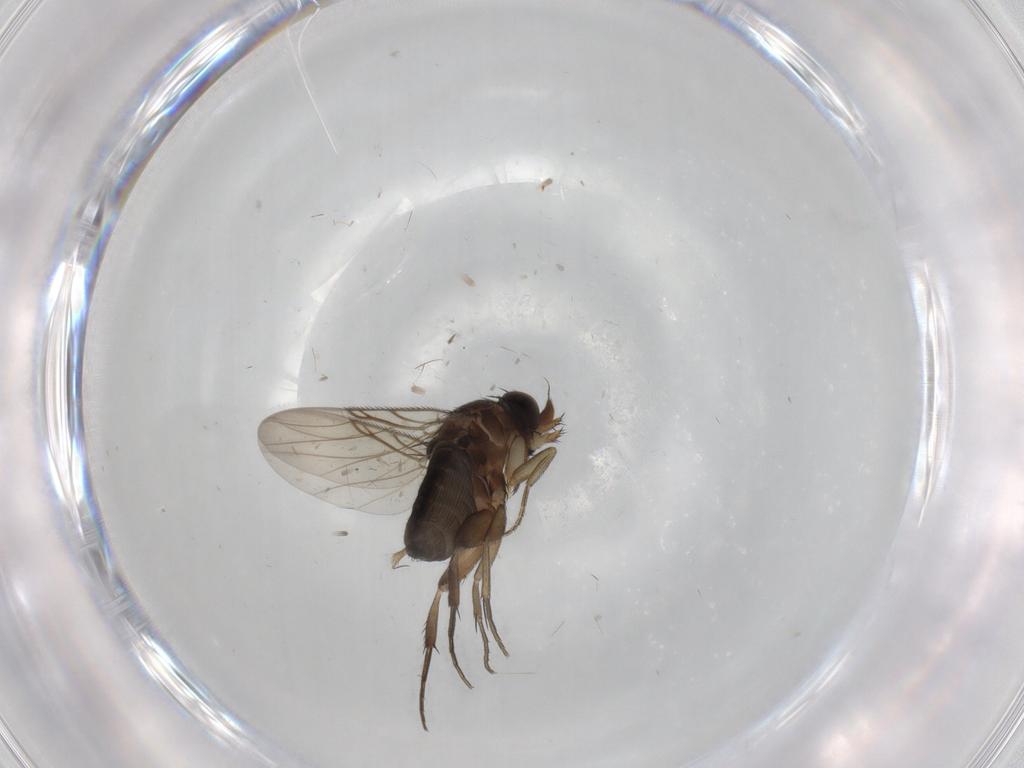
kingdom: Animalia
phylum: Arthropoda
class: Insecta
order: Diptera
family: Phoridae
